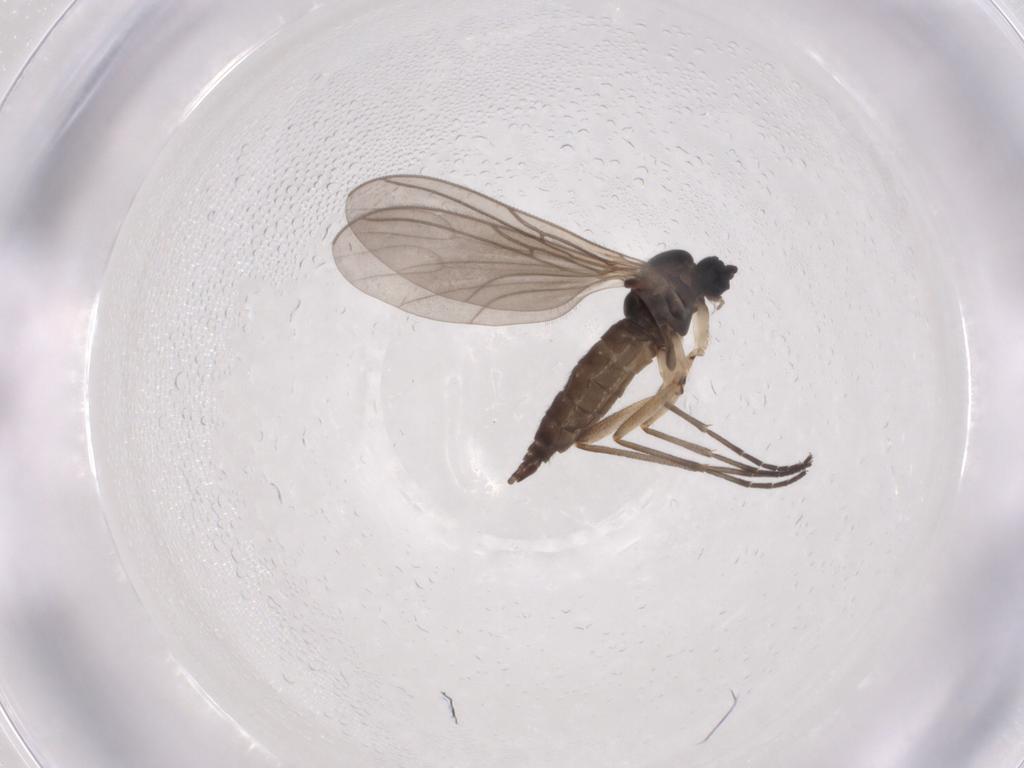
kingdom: Animalia
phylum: Arthropoda
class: Insecta
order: Diptera
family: Sciaridae
